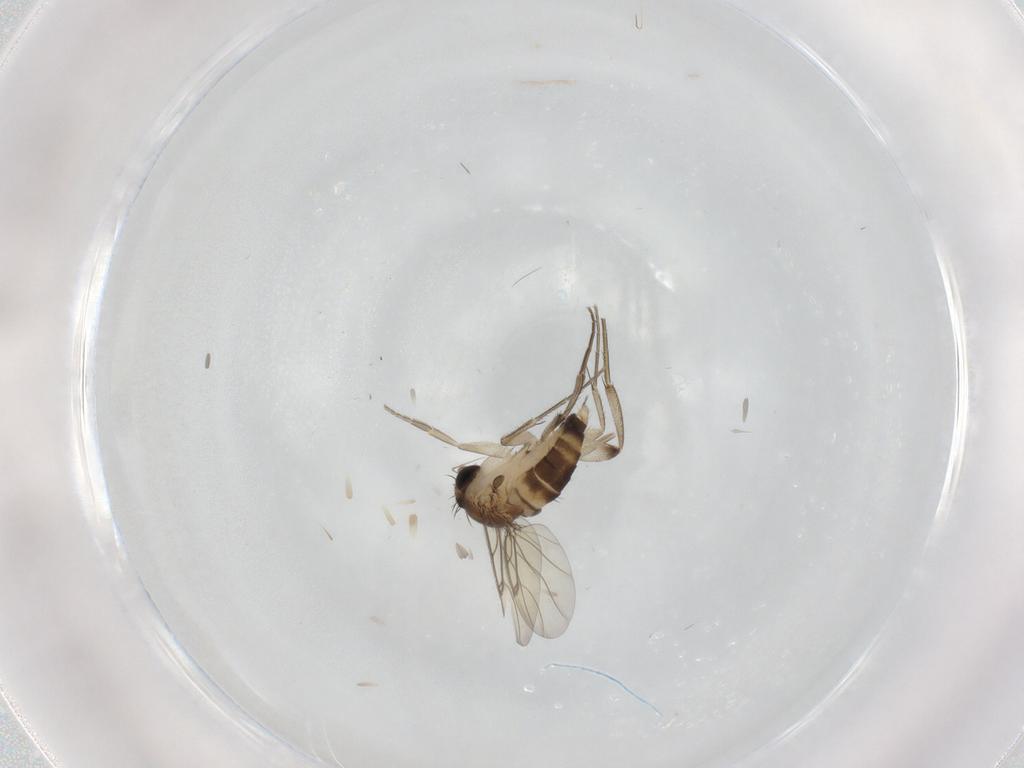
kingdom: Animalia
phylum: Arthropoda
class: Insecta
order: Diptera
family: Phoridae
